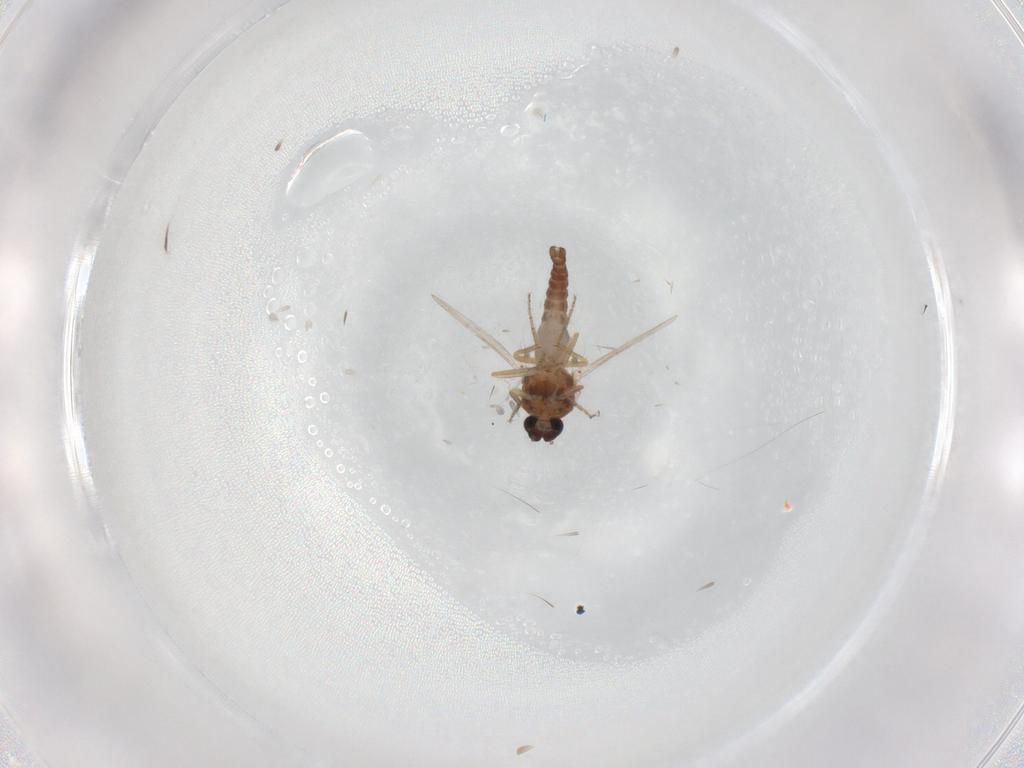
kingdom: Animalia
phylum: Arthropoda
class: Insecta
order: Diptera
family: Ceratopogonidae
